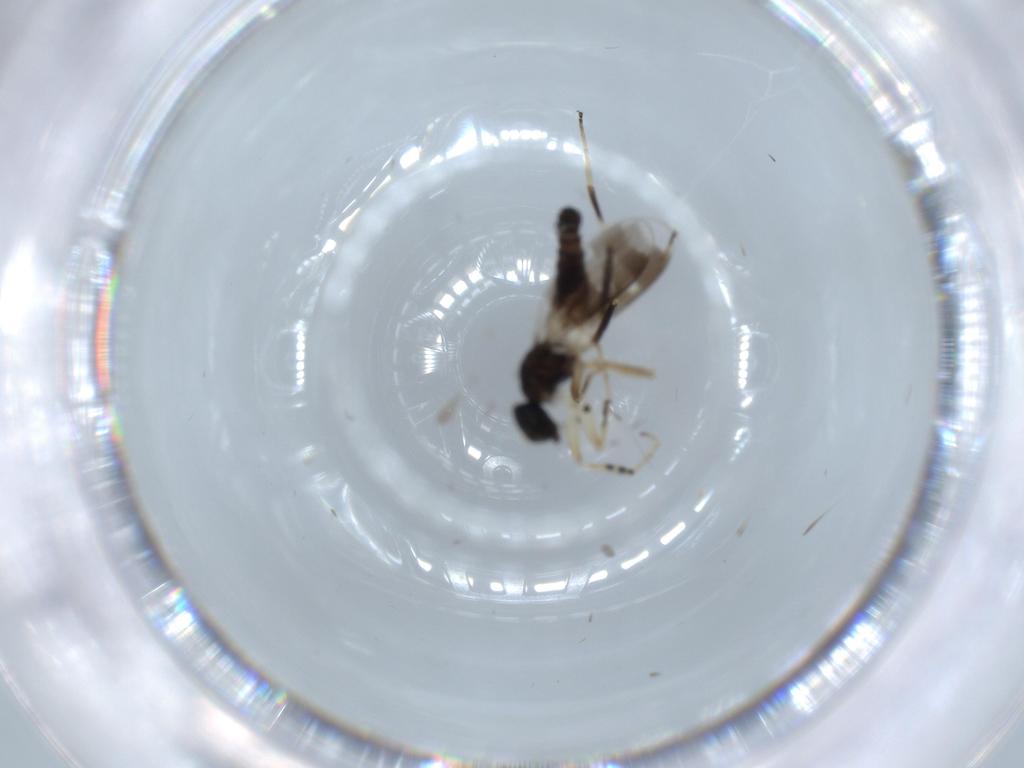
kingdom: Animalia
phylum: Arthropoda
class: Insecta
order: Diptera
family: Hybotidae
